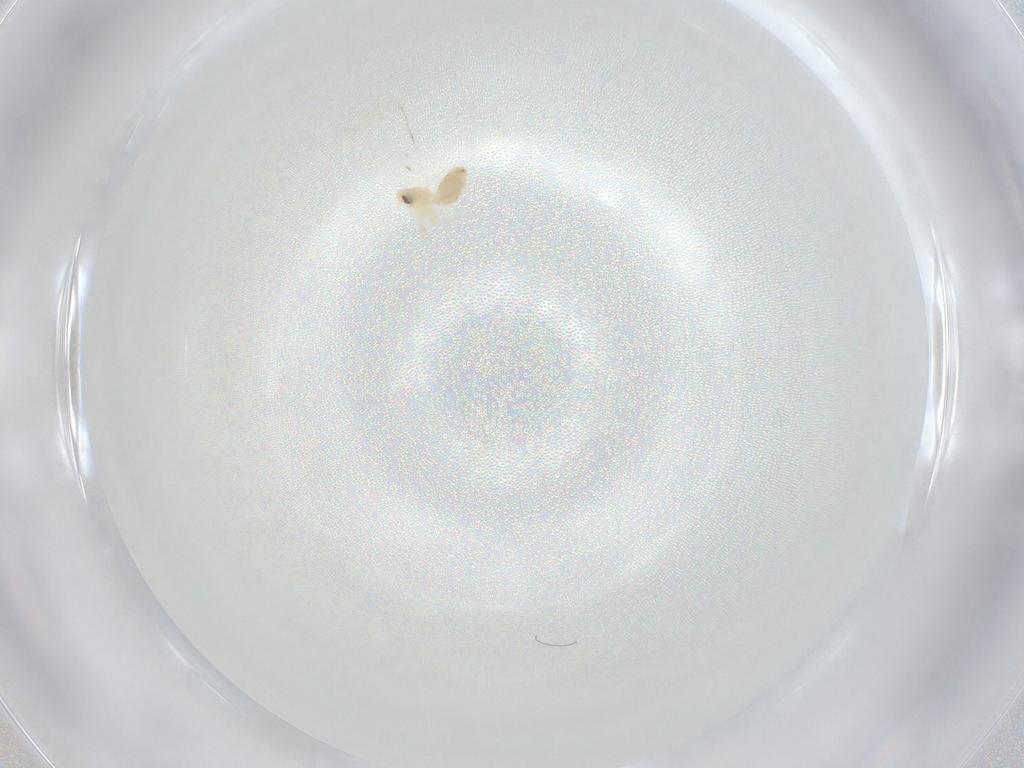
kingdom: Animalia
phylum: Arthropoda
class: Insecta
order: Hemiptera
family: Aleyrodidae
